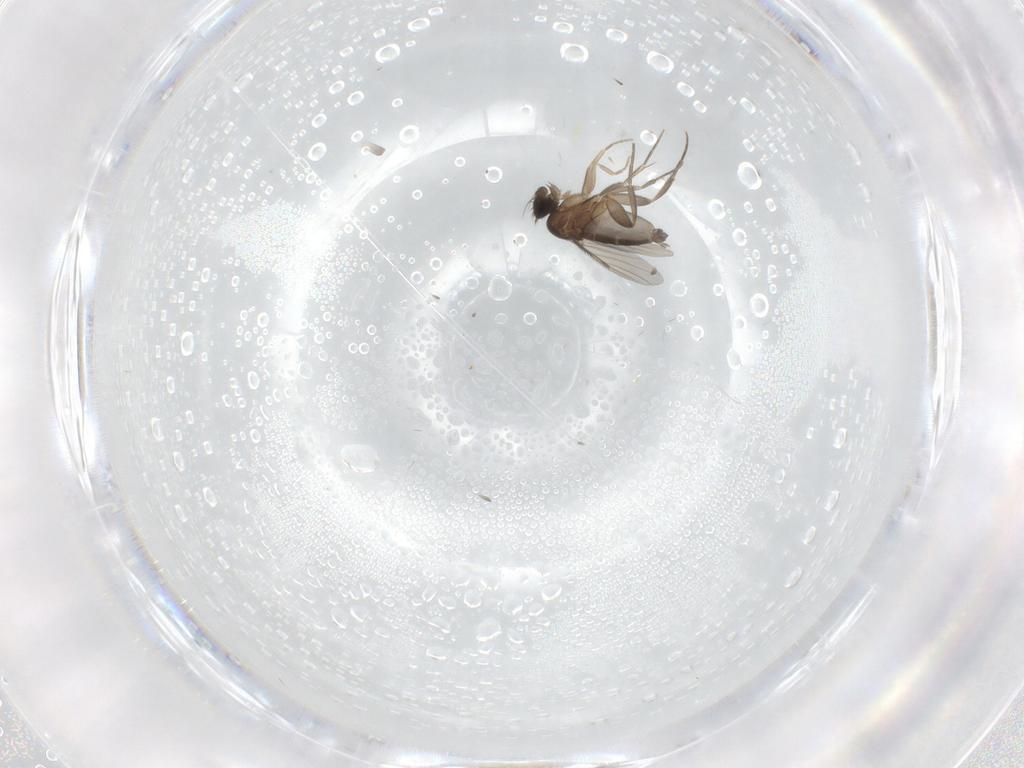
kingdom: Animalia
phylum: Arthropoda
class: Insecta
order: Diptera
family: Phoridae
